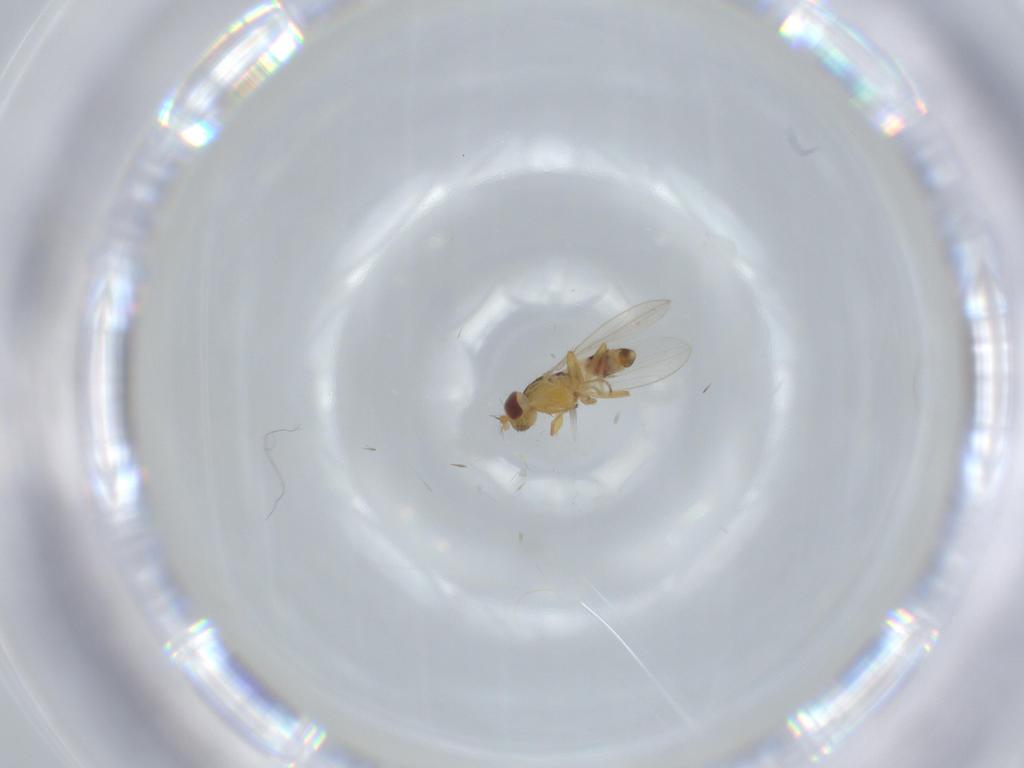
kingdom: Animalia
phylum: Arthropoda
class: Insecta
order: Diptera
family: Periscelididae
